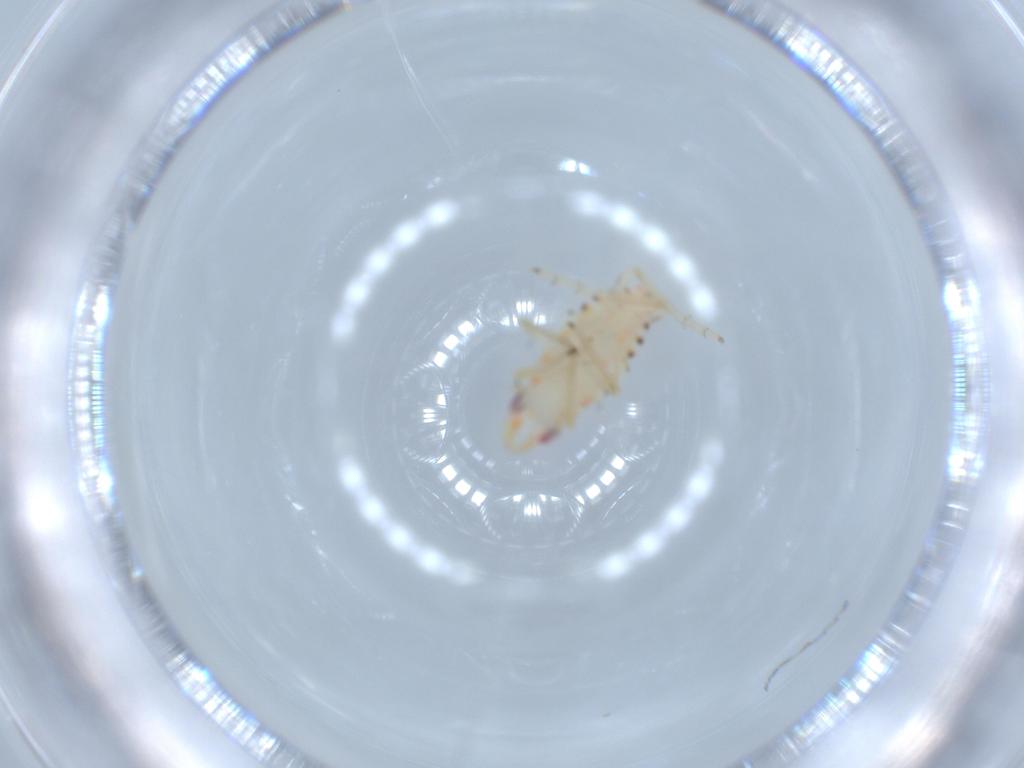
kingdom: Animalia
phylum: Arthropoda
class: Insecta
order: Hemiptera
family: Tropiduchidae
